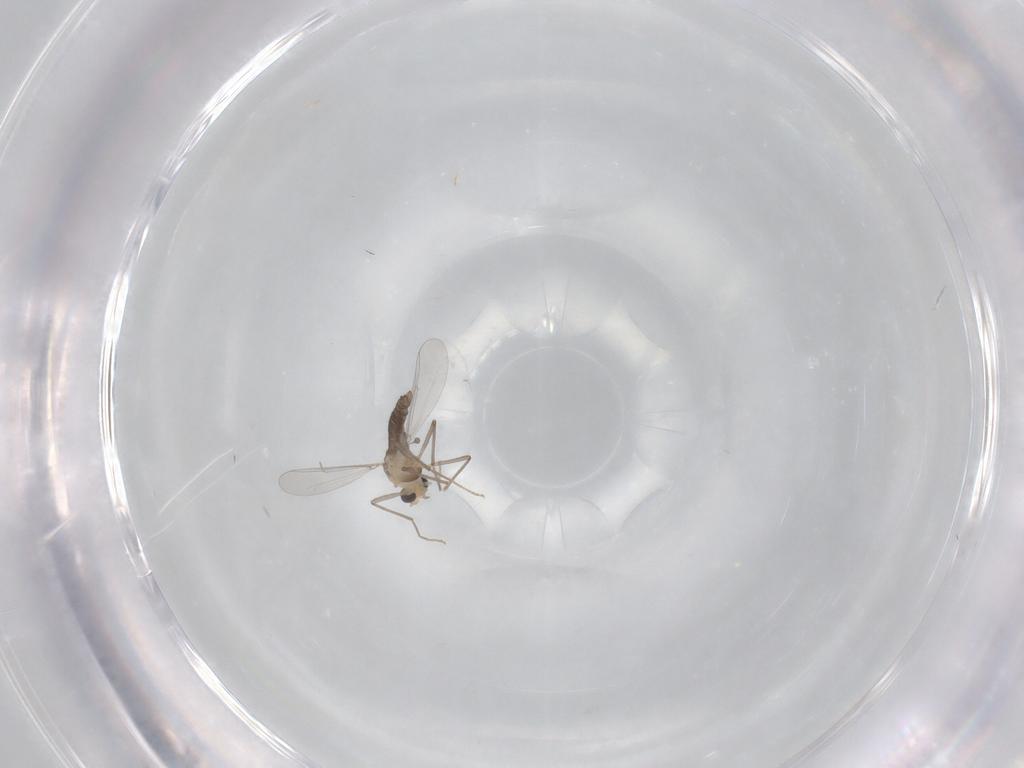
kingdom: Animalia
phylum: Arthropoda
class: Insecta
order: Diptera
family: Chironomidae
